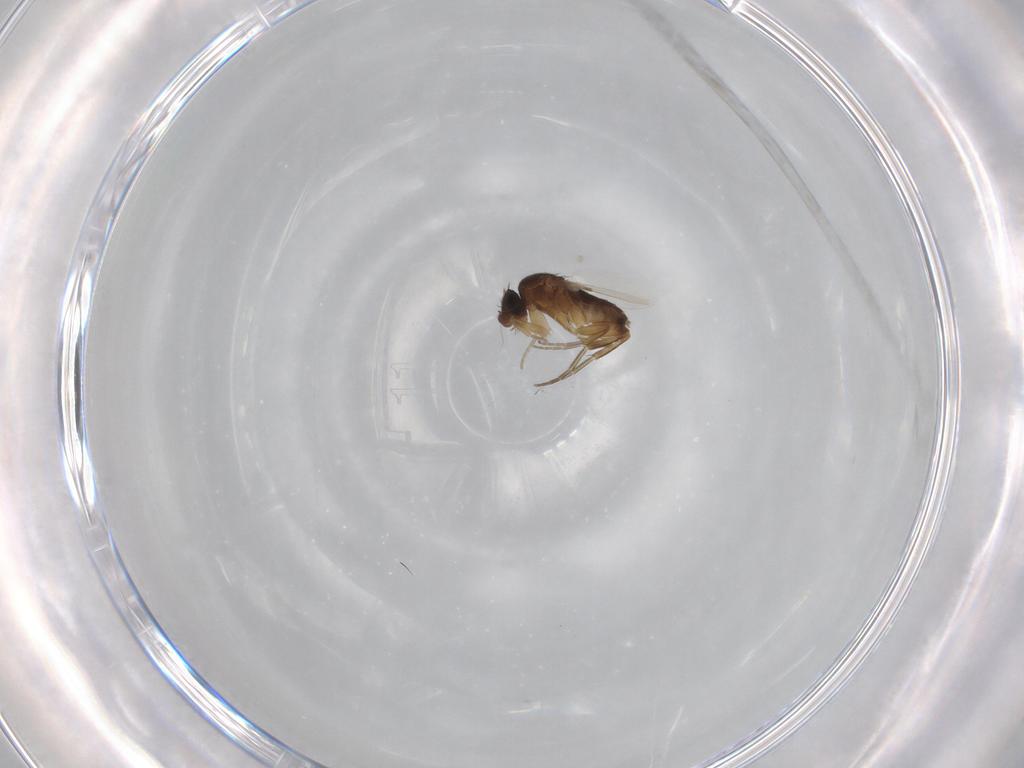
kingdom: Animalia
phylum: Arthropoda
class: Insecta
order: Diptera
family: Phoridae
